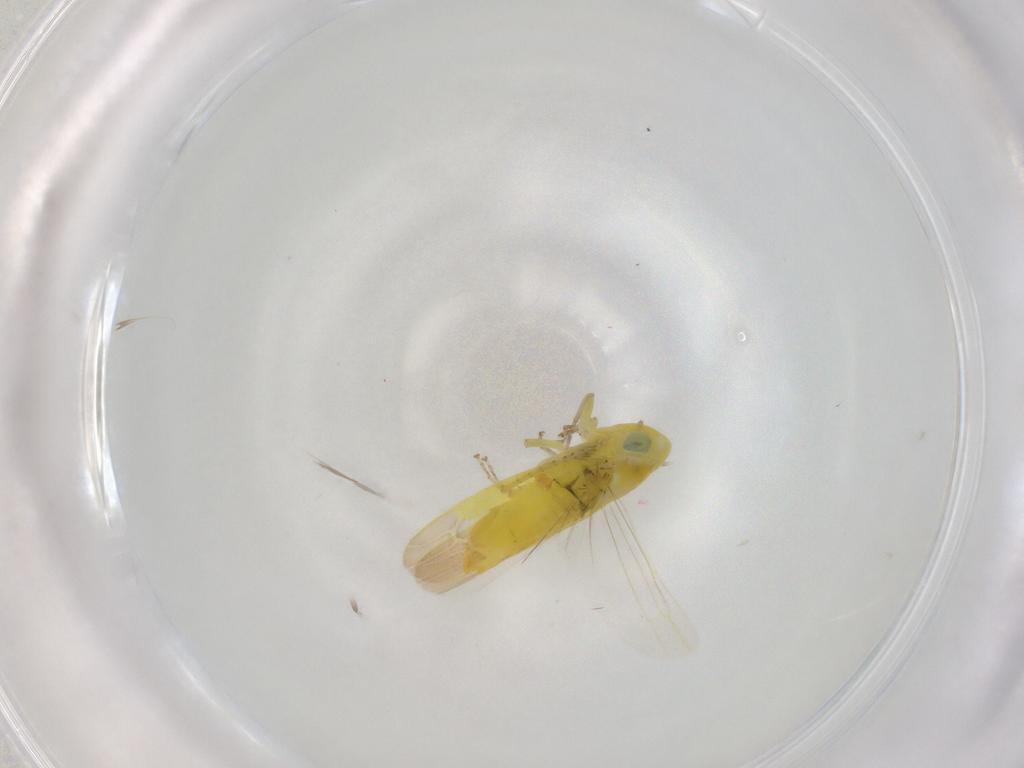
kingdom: Animalia
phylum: Arthropoda
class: Insecta
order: Hemiptera
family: Cicadellidae
